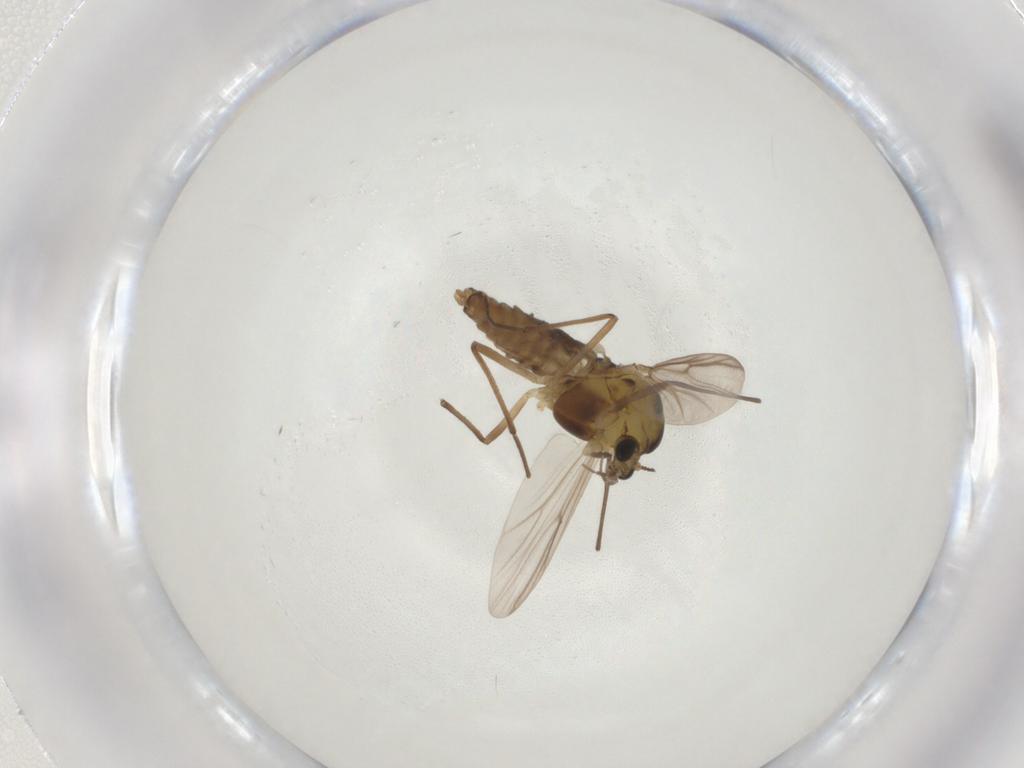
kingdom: Animalia
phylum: Arthropoda
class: Insecta
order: Diptera
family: Chironomidae
